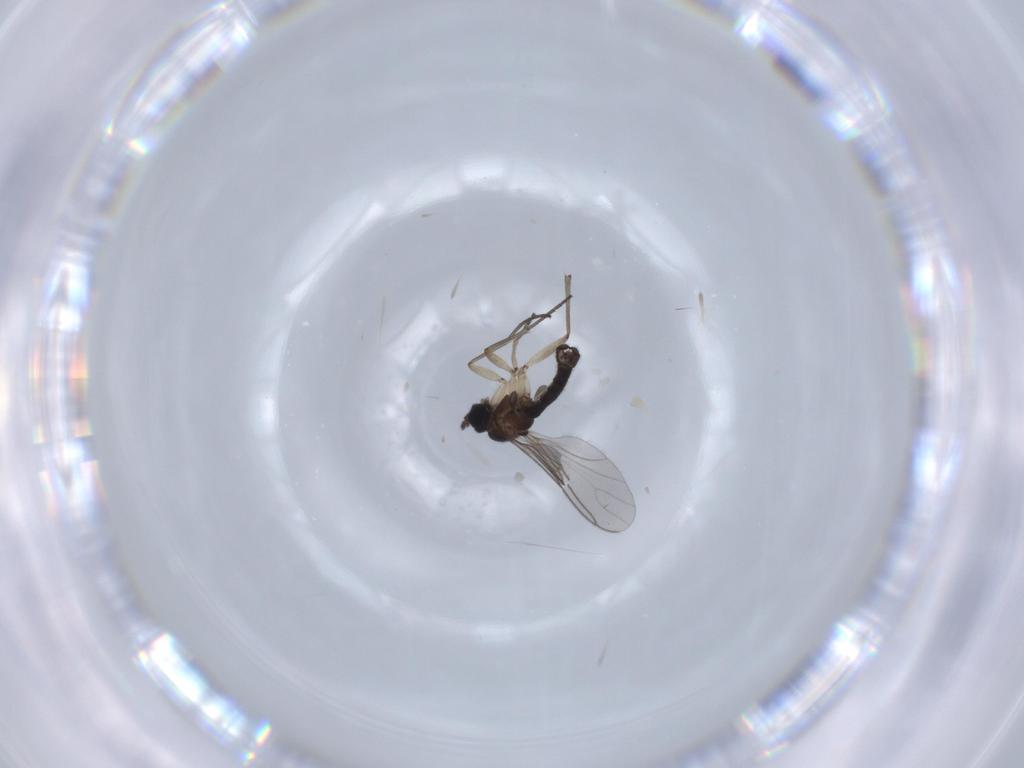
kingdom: Animalia
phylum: Arthropoda
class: Insecta
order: Diptera
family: Sciaridae
